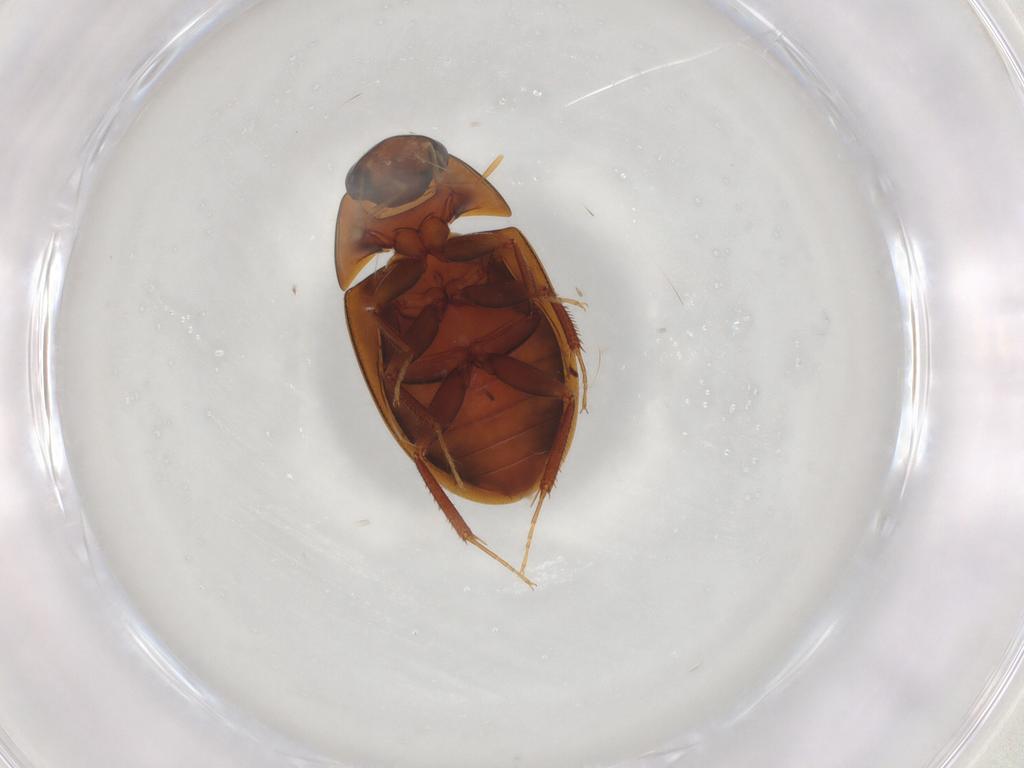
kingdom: Animalia
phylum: Arthropoda
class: Insecta
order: Coleoptera
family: Hydrophilidae
